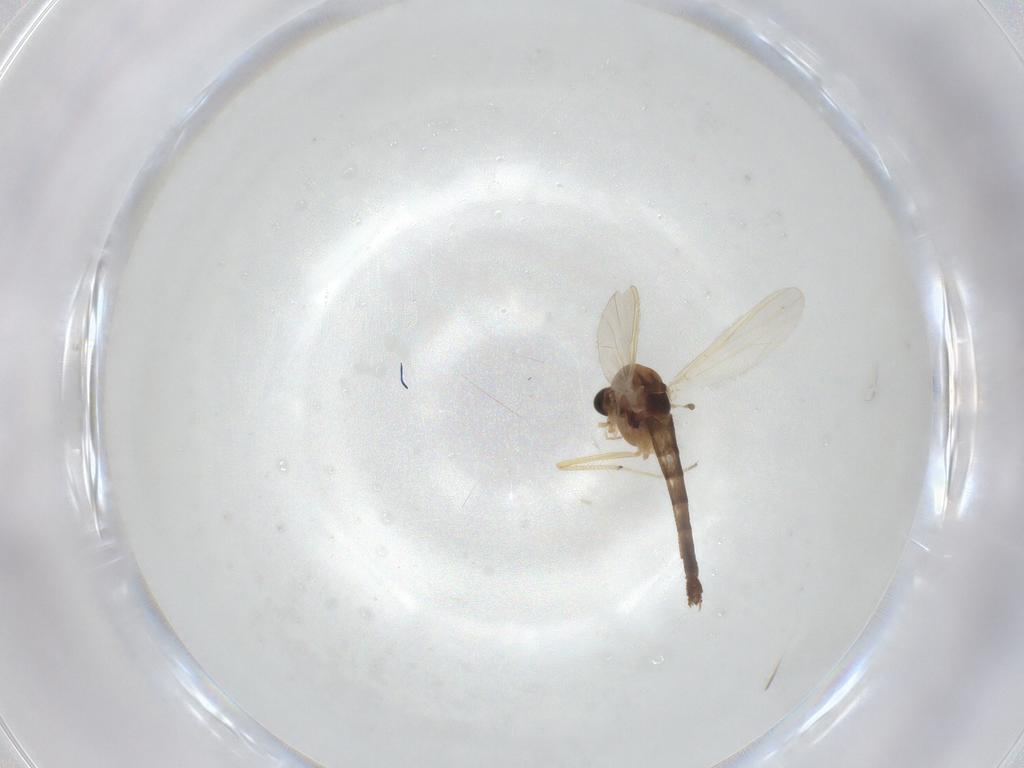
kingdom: Animalia
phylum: Arthropoda
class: Insecta
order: Diptera
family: Chironomidae
